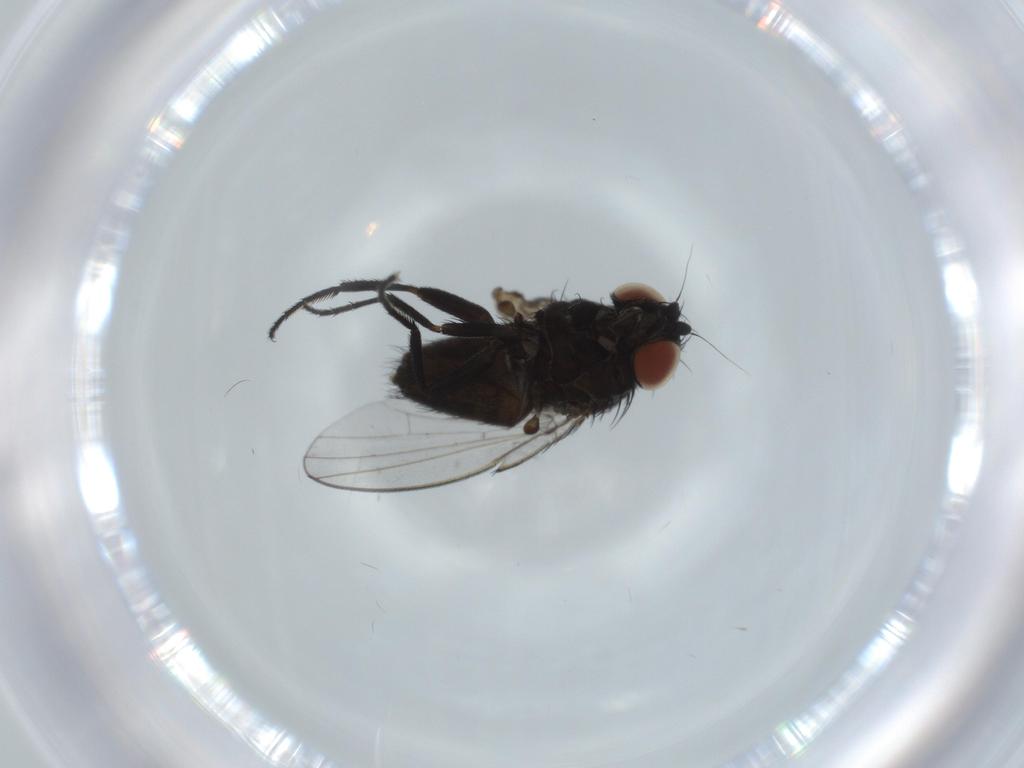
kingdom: Animalia
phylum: Arthropoda
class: Insecta
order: Diptera
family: Milichiidae
